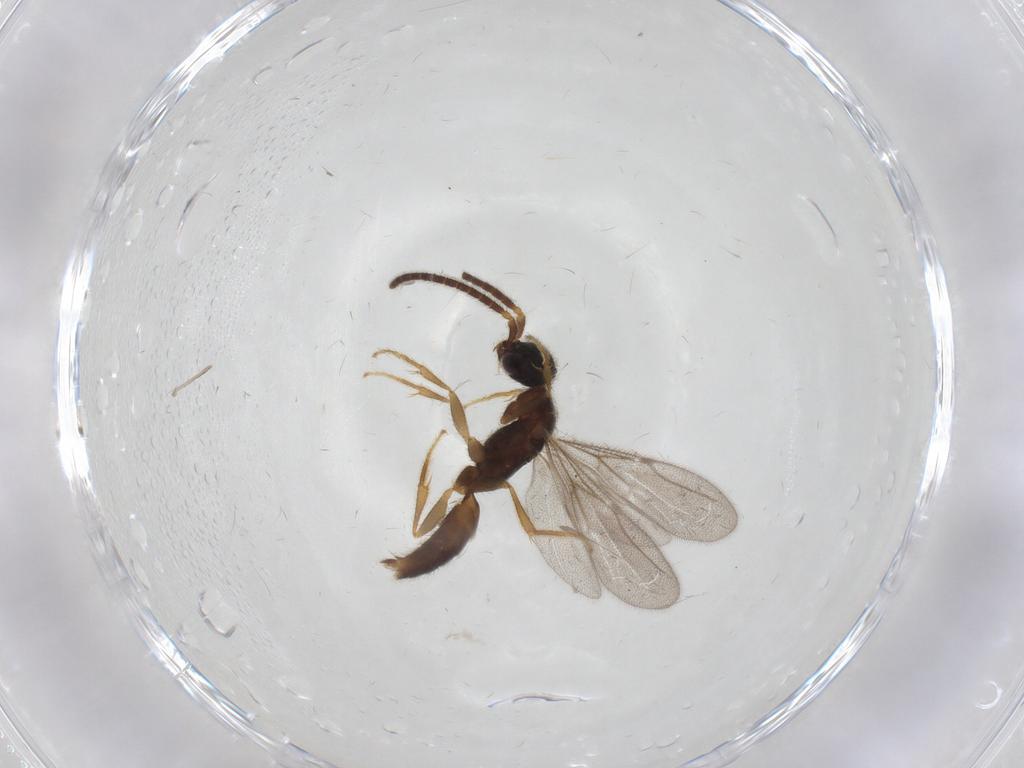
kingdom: Animalia
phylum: Arthropoda
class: Insecta
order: Hymenoptera
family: Bethylidae
